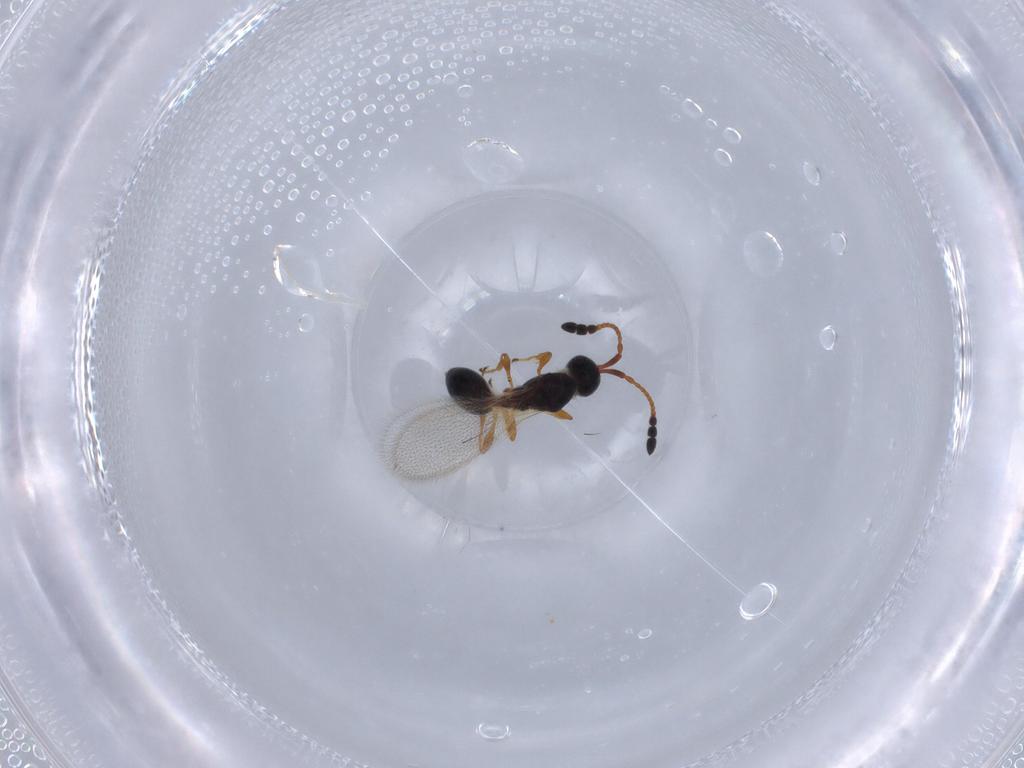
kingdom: Animalia
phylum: Arthropoda
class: Insecta
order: Hymenoptera
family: Diapriidae
